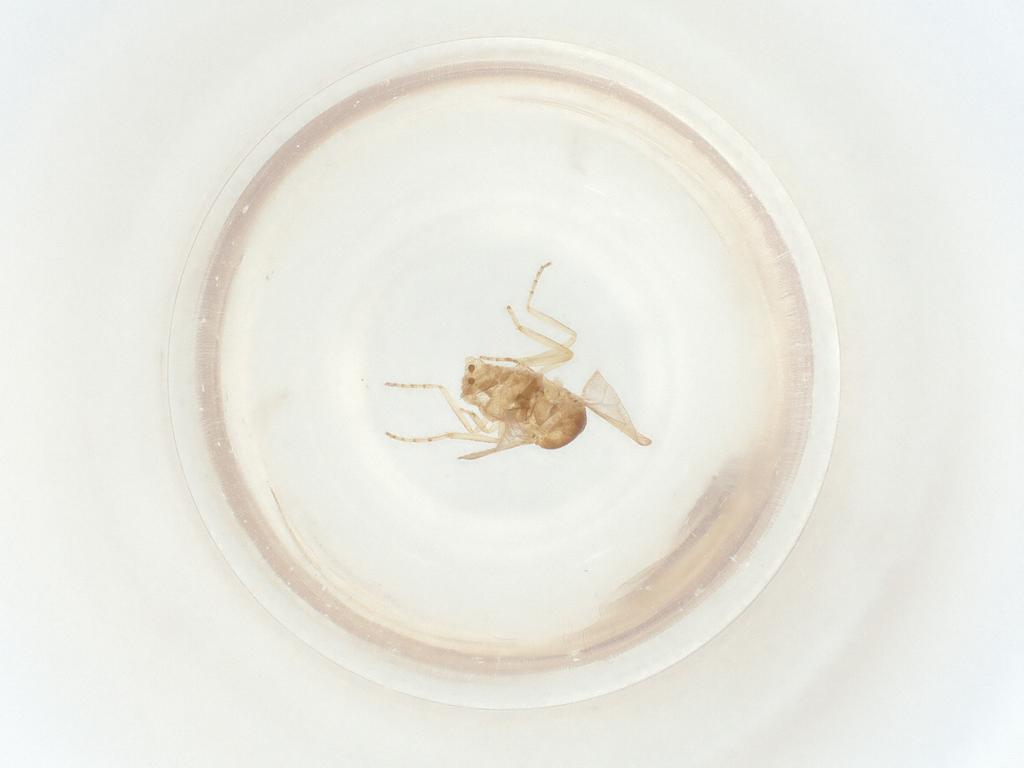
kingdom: Animalia
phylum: Arthropoda
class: Insecta
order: Diptera
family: Ceratopogonidae
